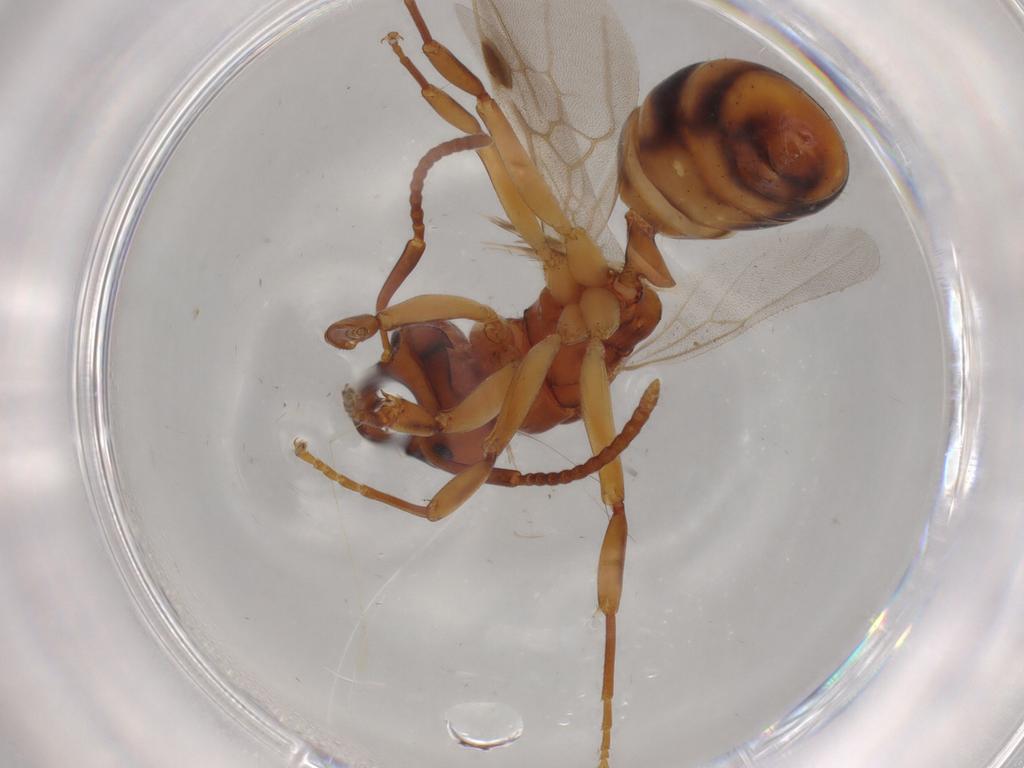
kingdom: Animalia
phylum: Arthropoda
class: Insecta
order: Hymenoptera
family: Formicidae
